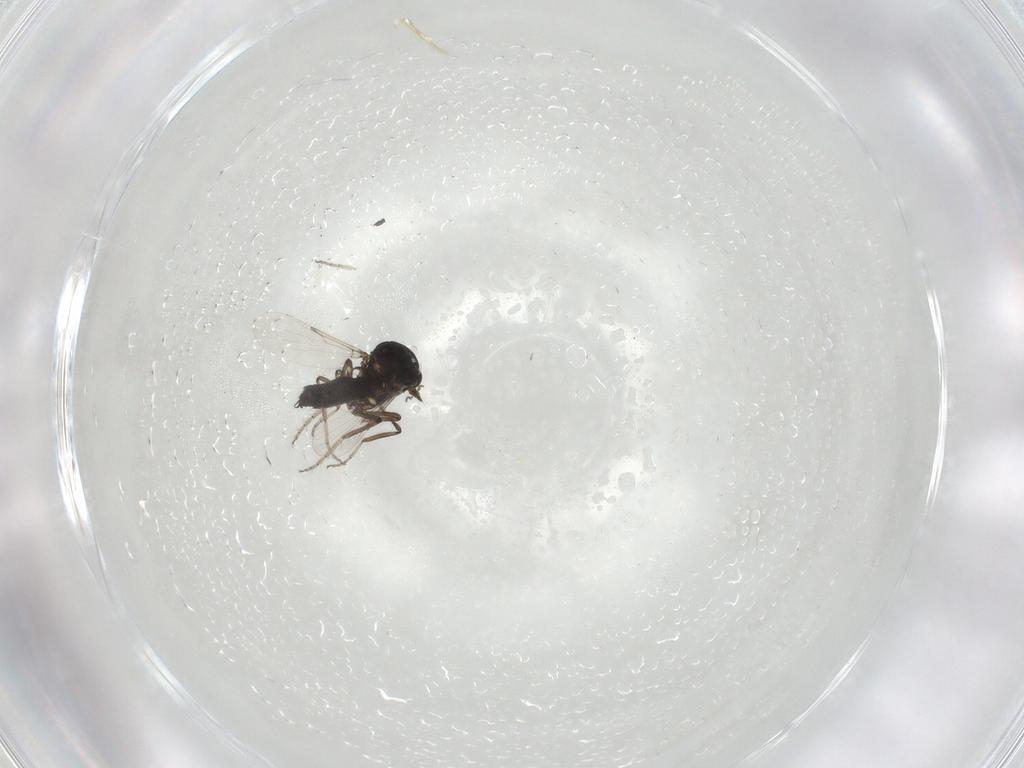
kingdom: Animalia
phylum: Arthropoda
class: Insecta
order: Diptera
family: Ceratopogonidae
